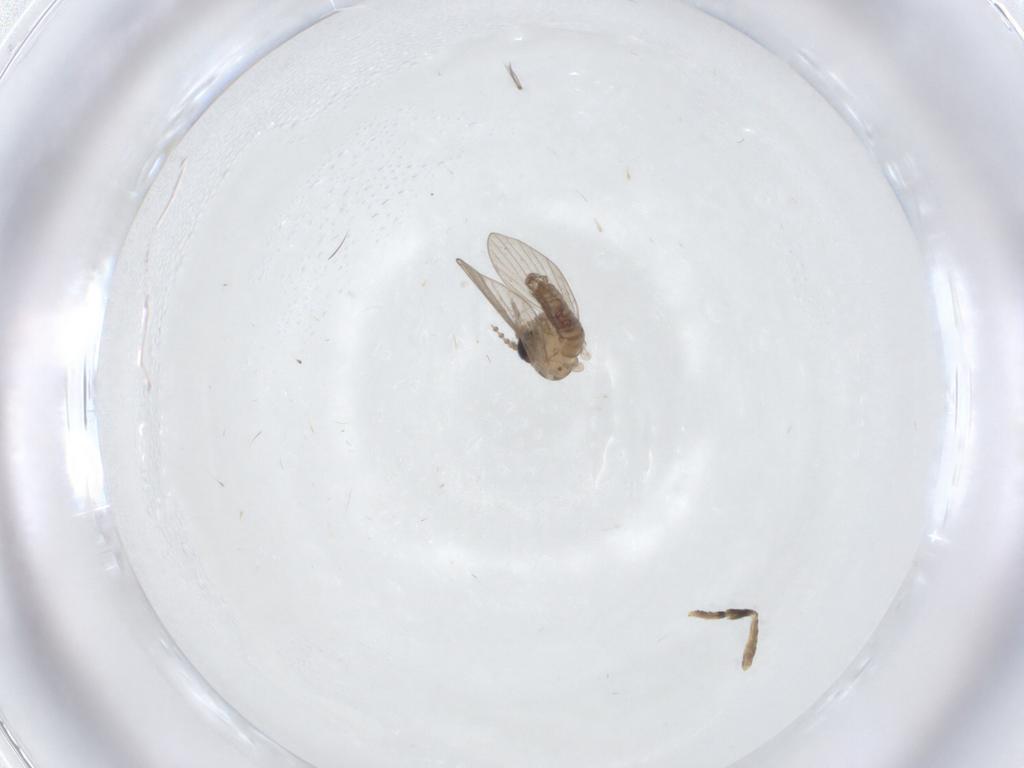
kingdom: Animalia
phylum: Arthropoda
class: Insecta
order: Diptera
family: Psychodidae
